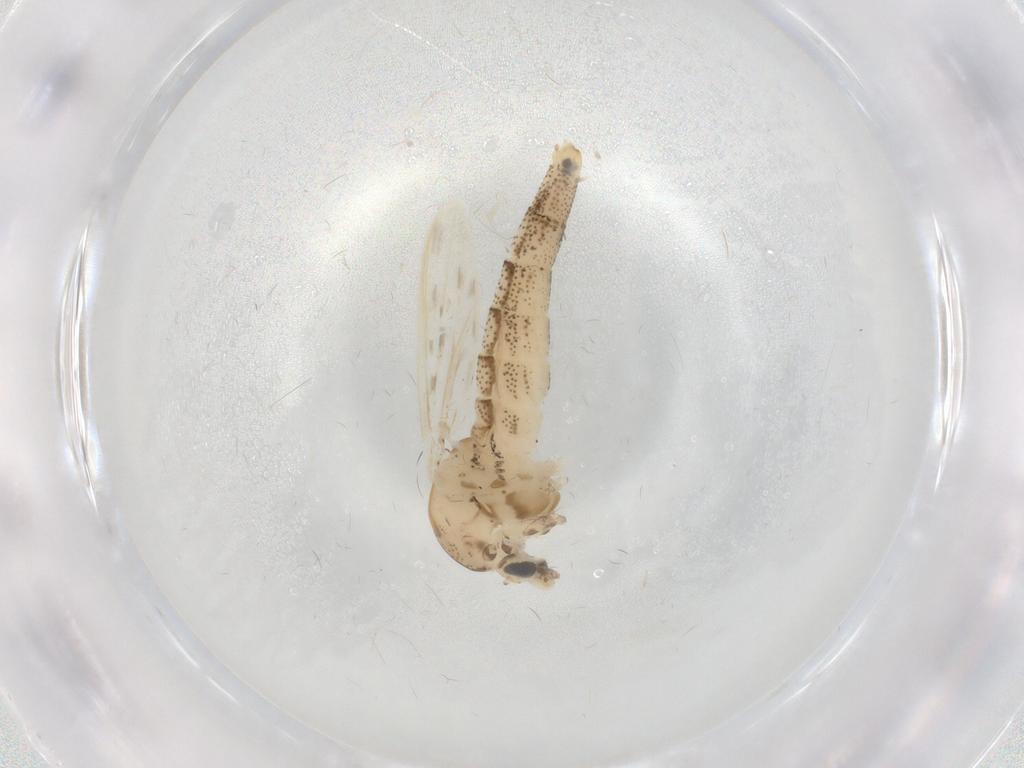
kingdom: Animalia
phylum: Arthropoda
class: Insecta
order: Diptera
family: Chaoboridae
